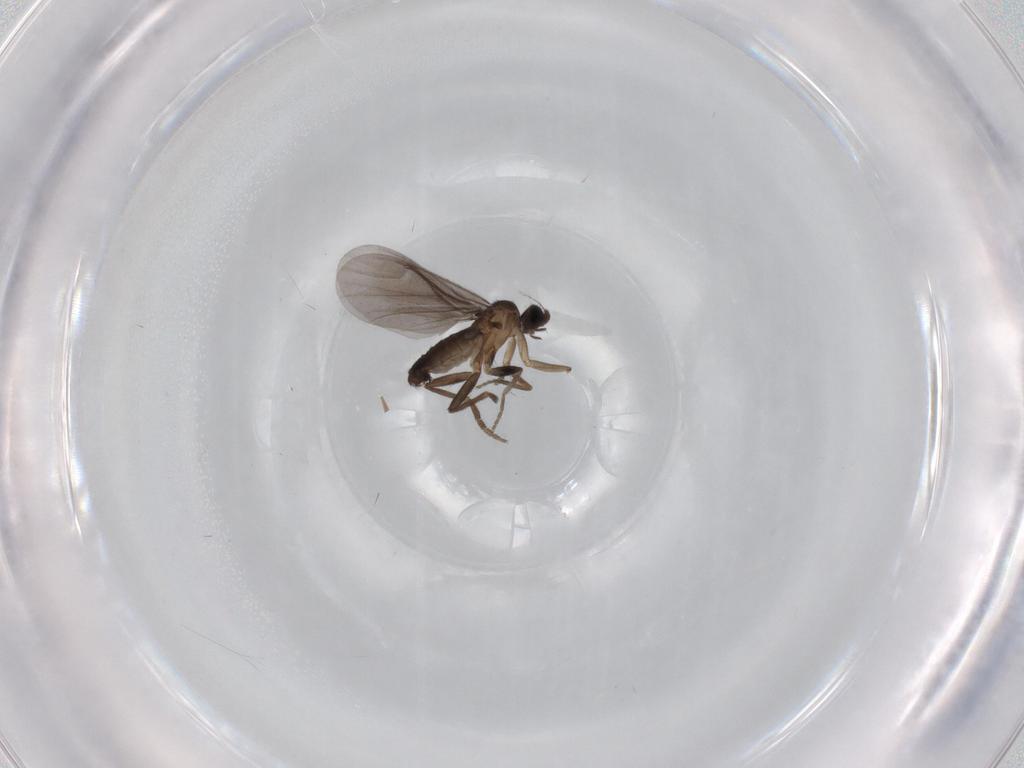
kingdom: Animalia
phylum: Arthropoda
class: Insecta
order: Diptera
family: Phoridae
